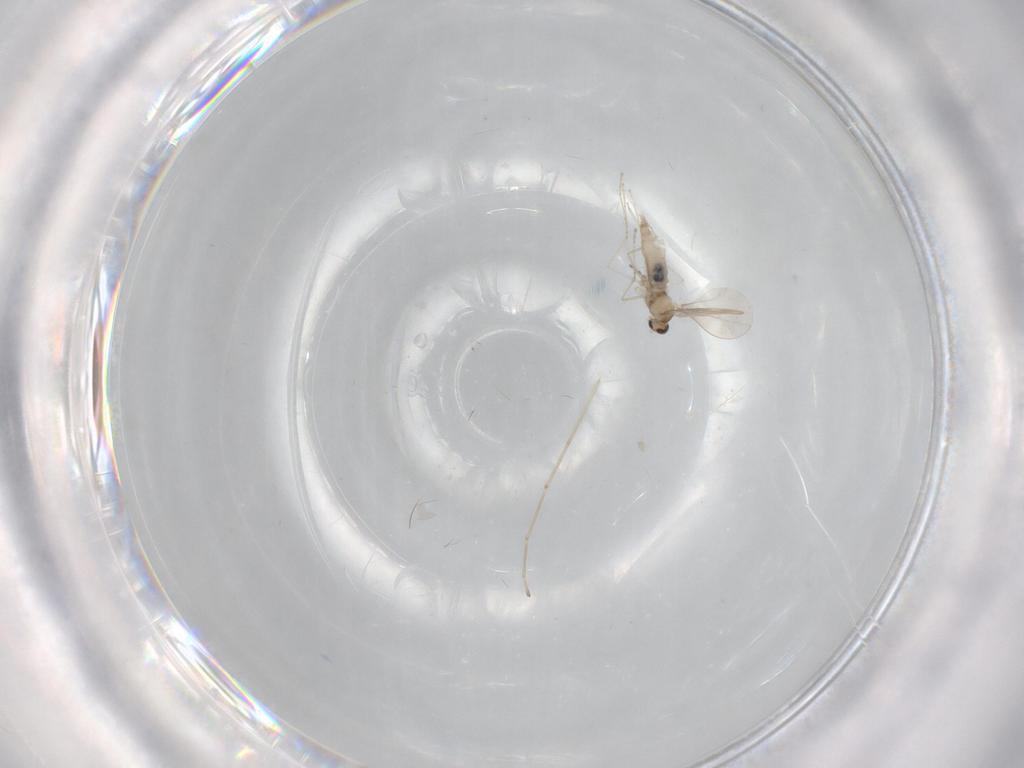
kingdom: Animalia
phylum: Arthropoda
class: Insecta
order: Diptera
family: Cecidomyiidae
